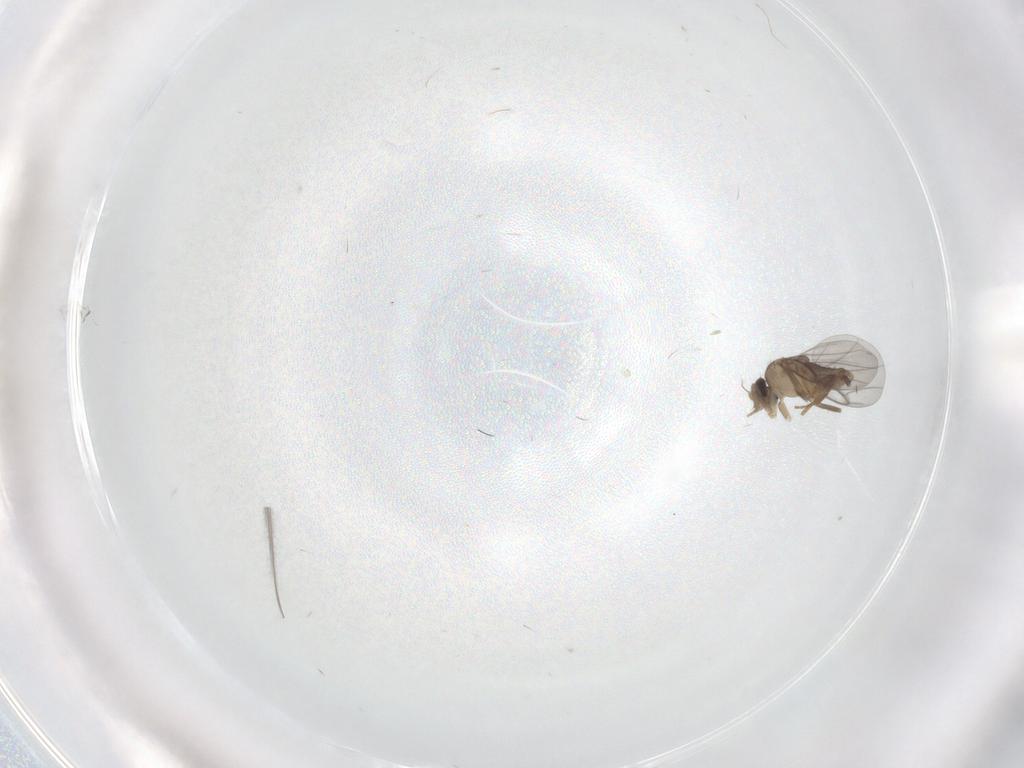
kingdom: Animalia
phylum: Arthropoda
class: Insecta
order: Diptera
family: Chironomidae
